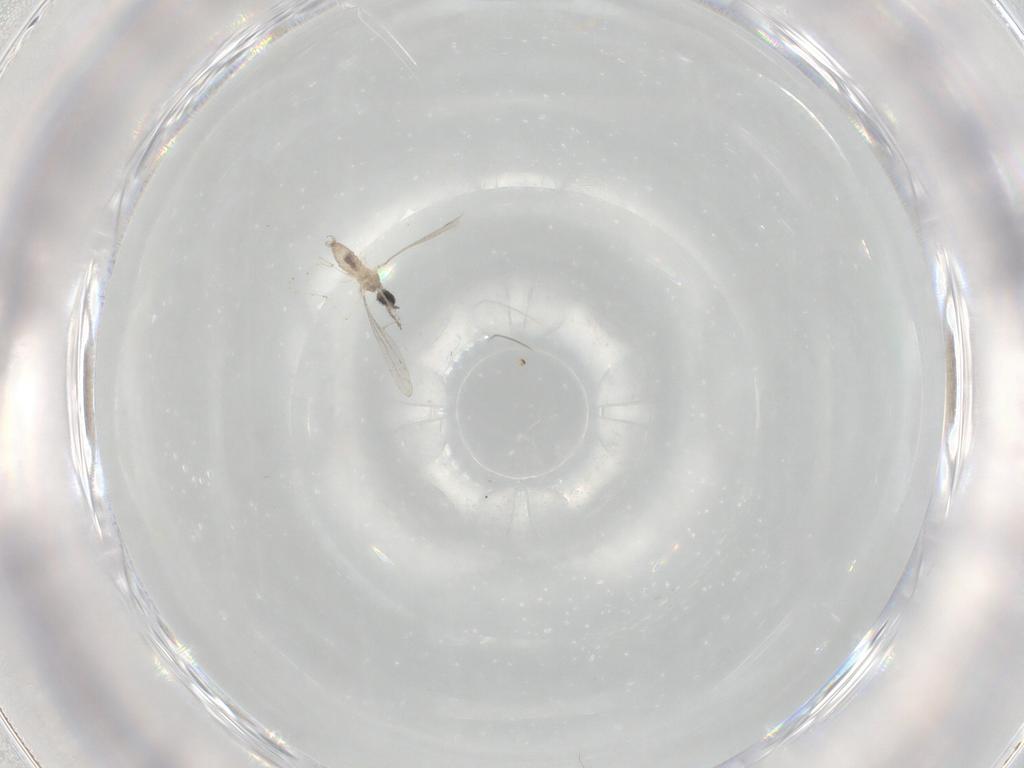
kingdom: Animalia
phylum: Arthropoda
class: Insecta
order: Diptera
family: Cecidomyiidae
